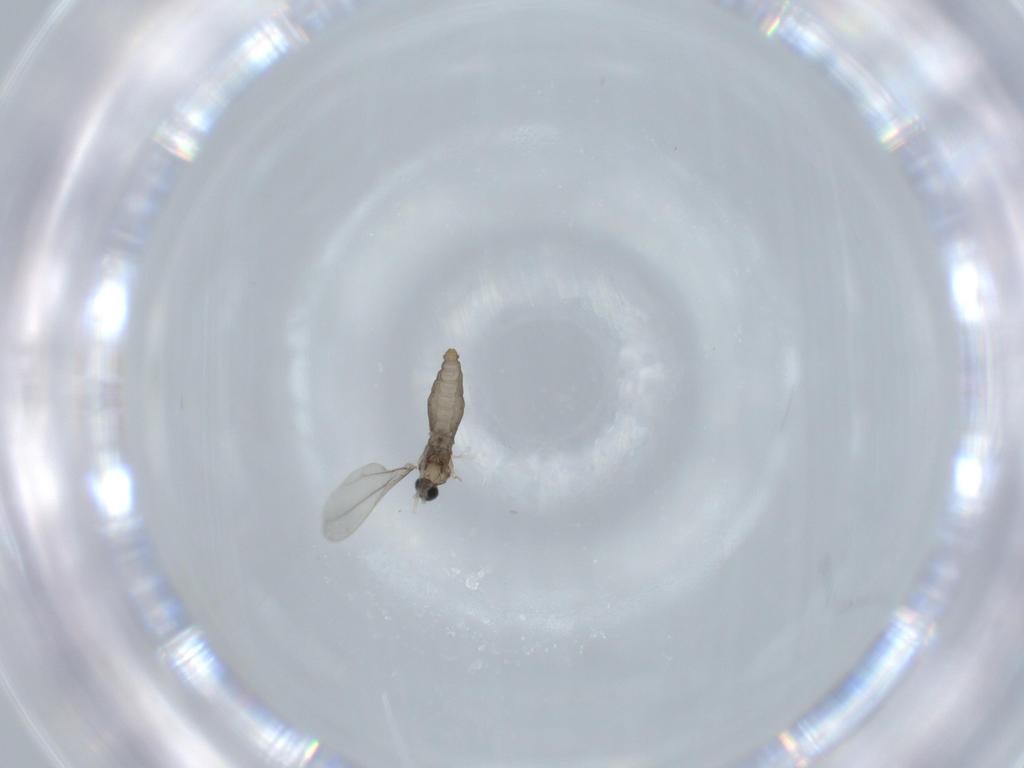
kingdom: Animalia
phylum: Arthropoda
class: Insecta
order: Diptera
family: Cecidomyiidae
